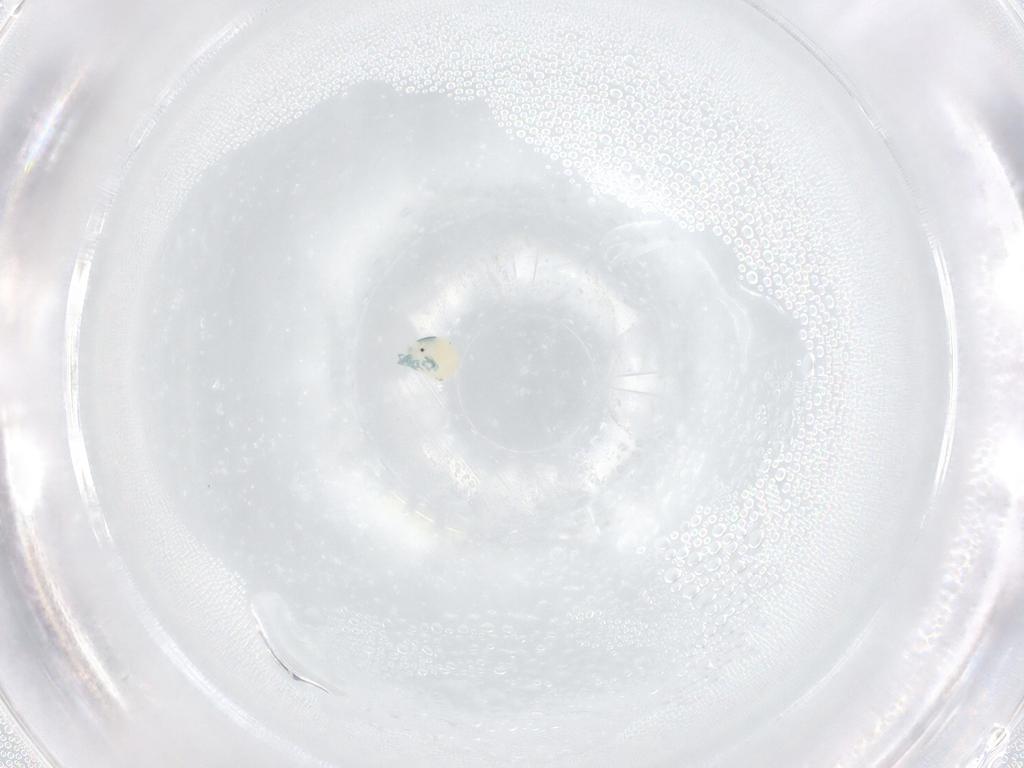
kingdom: Animalia
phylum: Arthropoda
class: Arachnida
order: Trombidiformes
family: Arrenuridae
